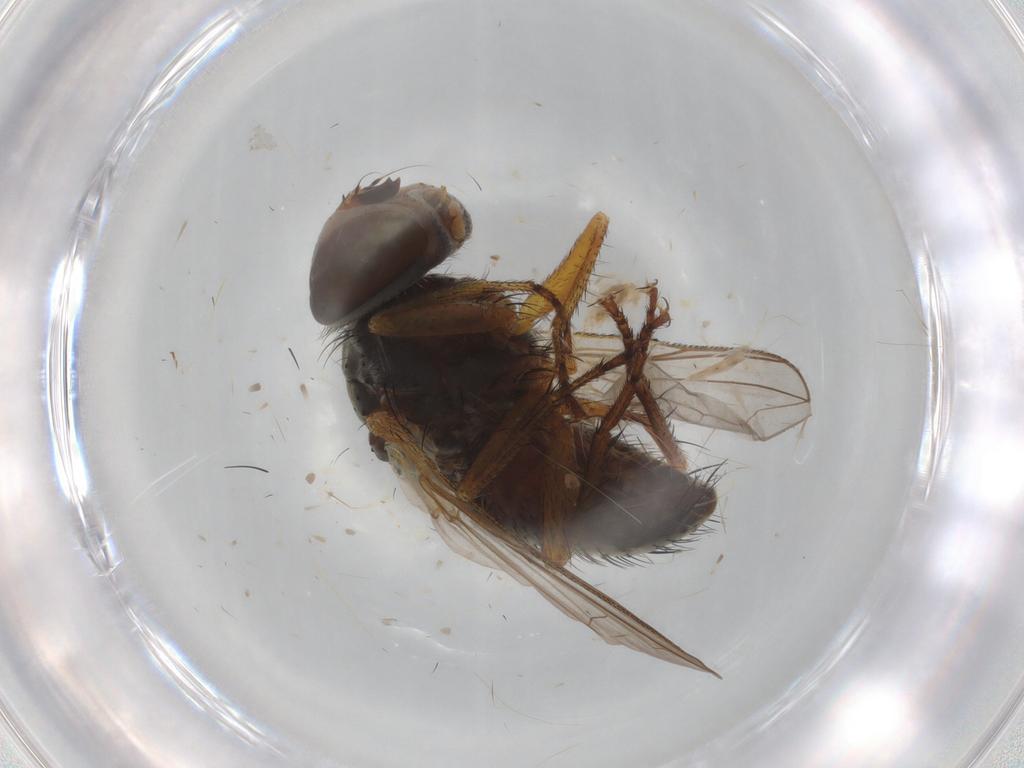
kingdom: Animalia
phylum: Arthropoda
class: Insecta
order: Diptera
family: Tachinidae
